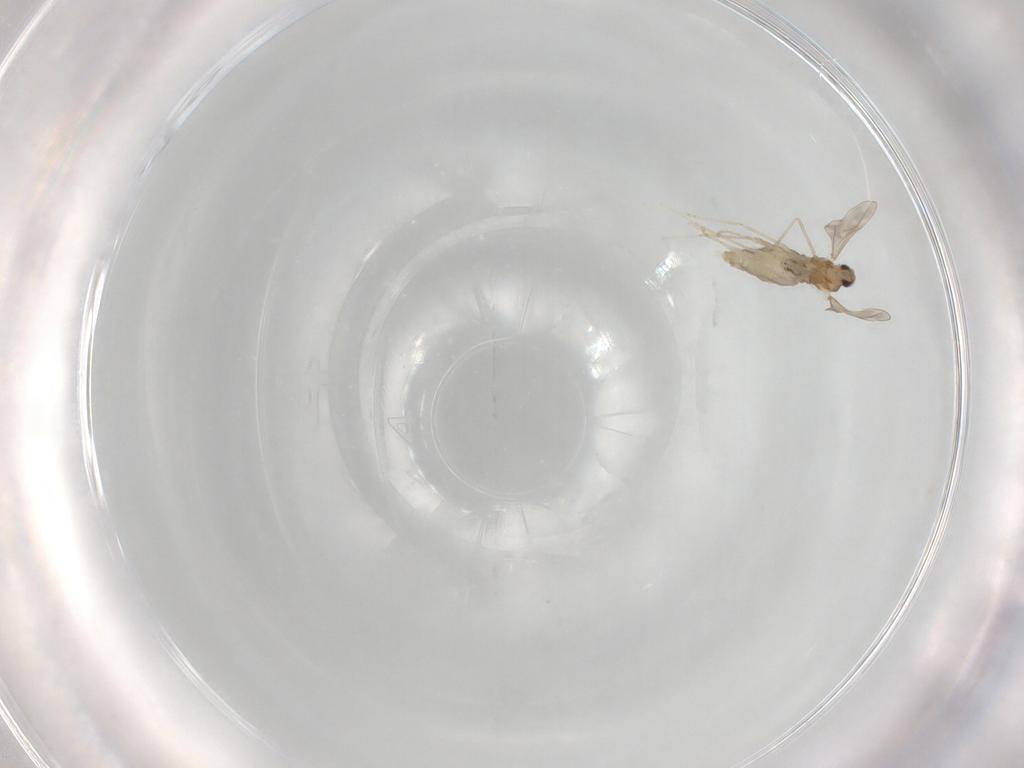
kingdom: Animalia
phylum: Arthropoda
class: Insecta
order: Diptera
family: Cecidomyiidae
